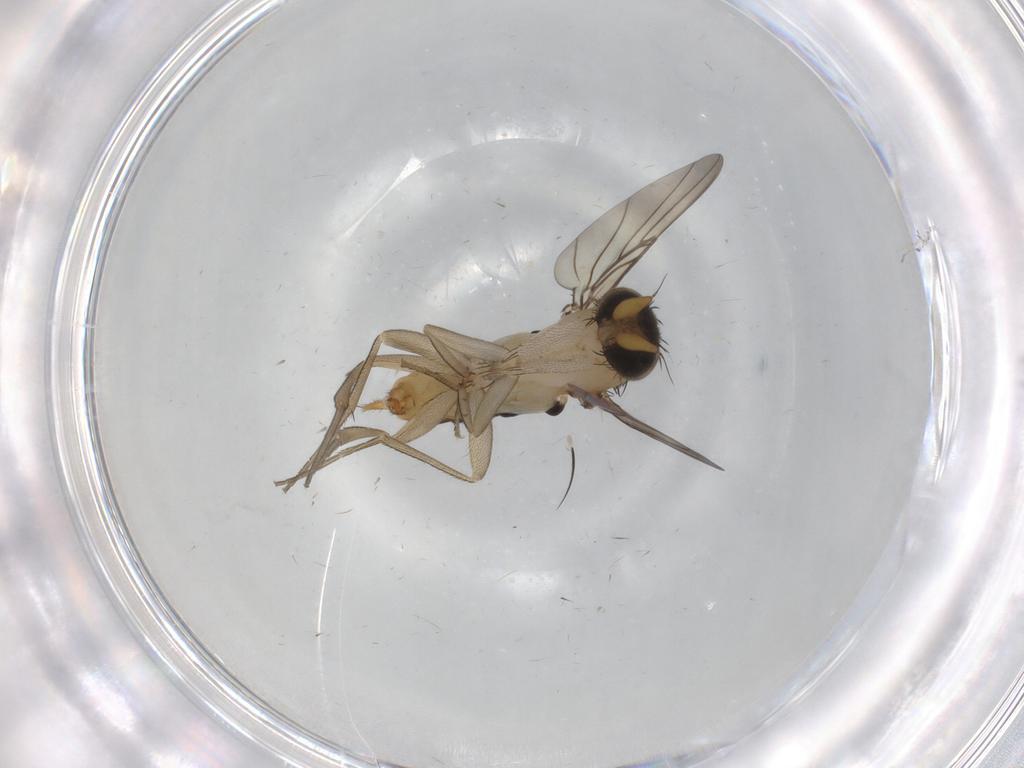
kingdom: Animalia
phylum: Arthropoda
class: Insecta
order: Diptera
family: Phoridae
